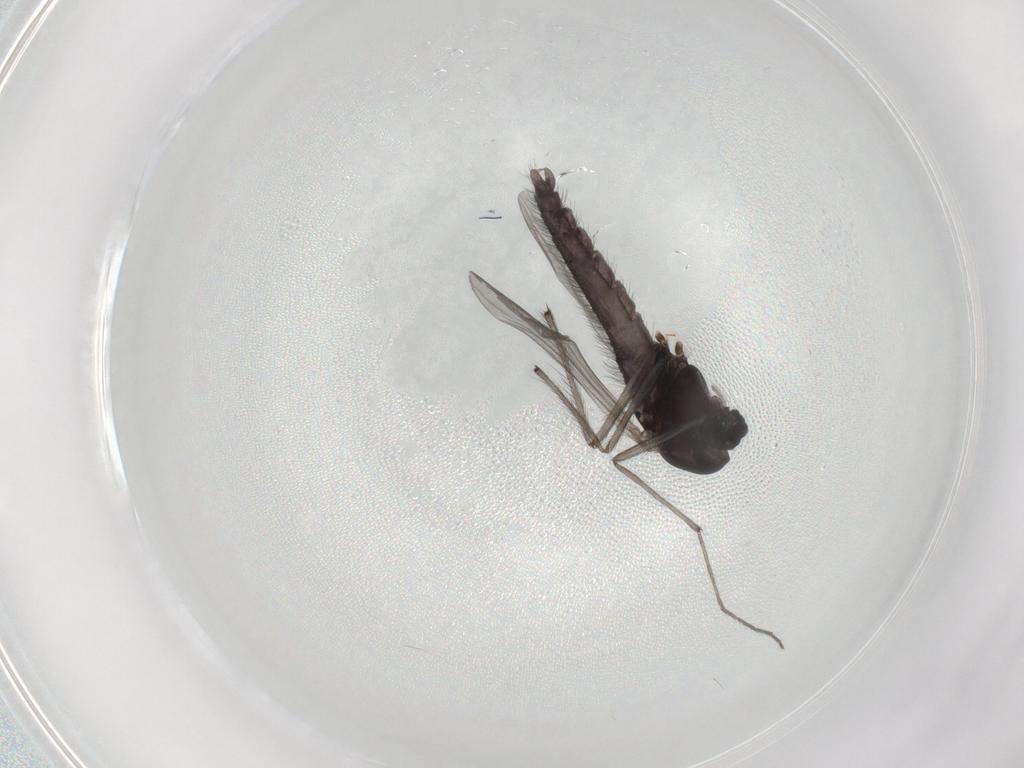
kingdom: Animalia
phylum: Arthropoda
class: Insecta
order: Diptera
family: Chironomidae
